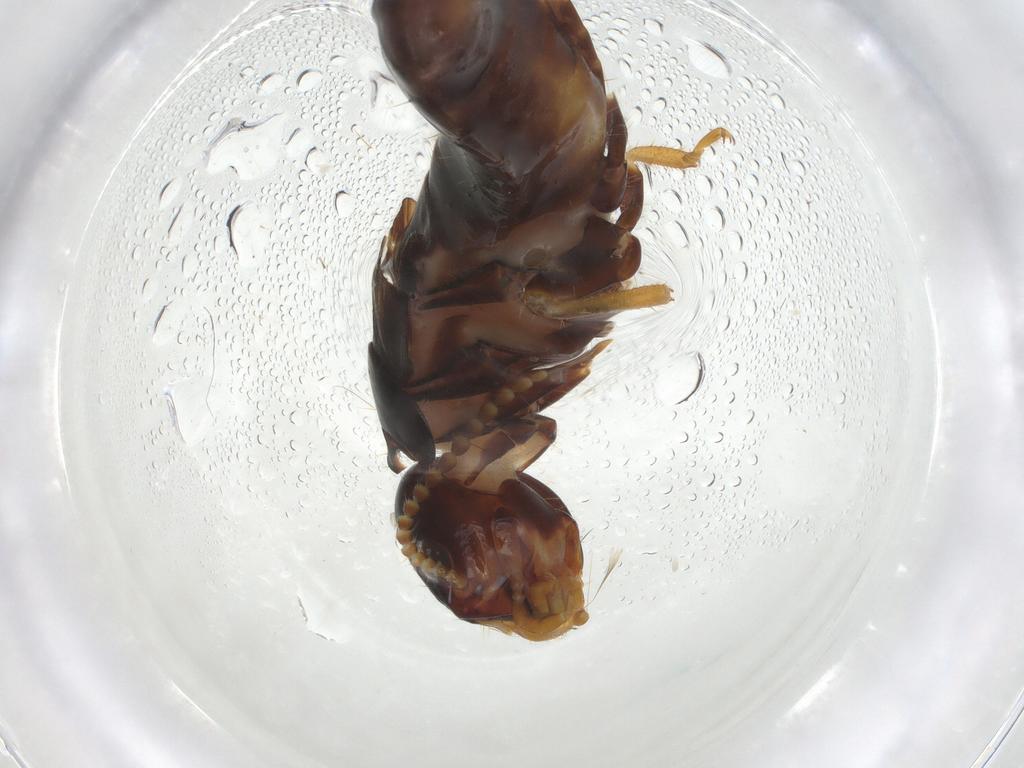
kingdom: Animalia
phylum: Arthropoda
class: Insecta
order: Blattodea
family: Kalotermitidae
